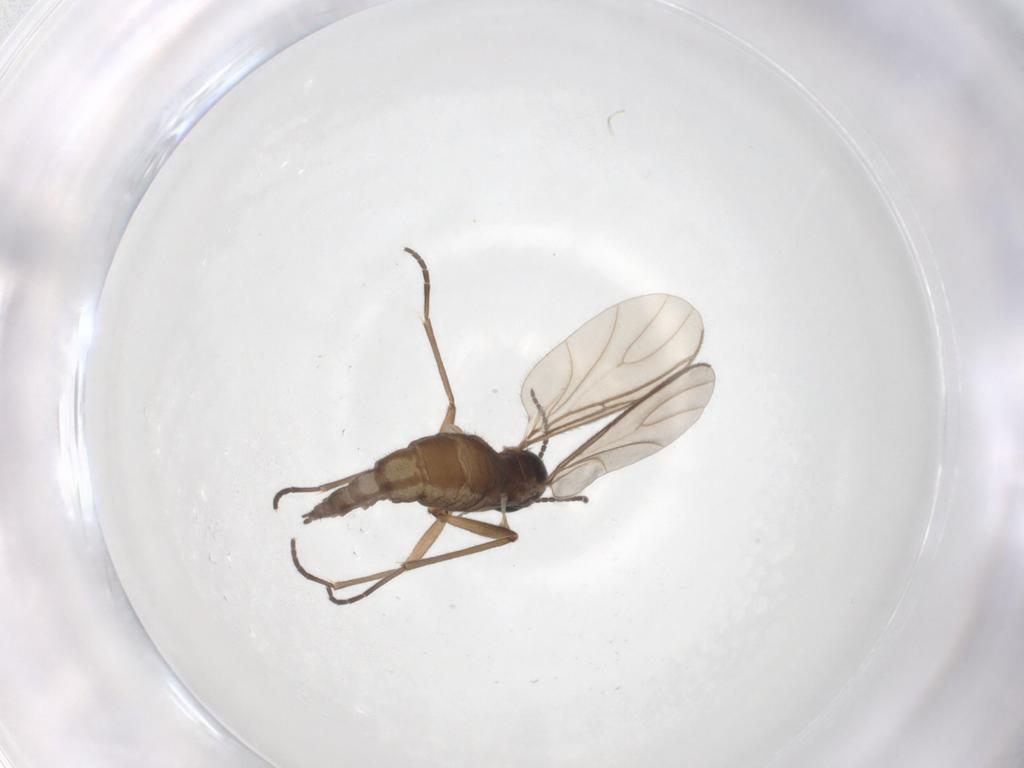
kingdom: Animalia
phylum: Arthropoda
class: Insecta
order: Diptera
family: Sciaridae
